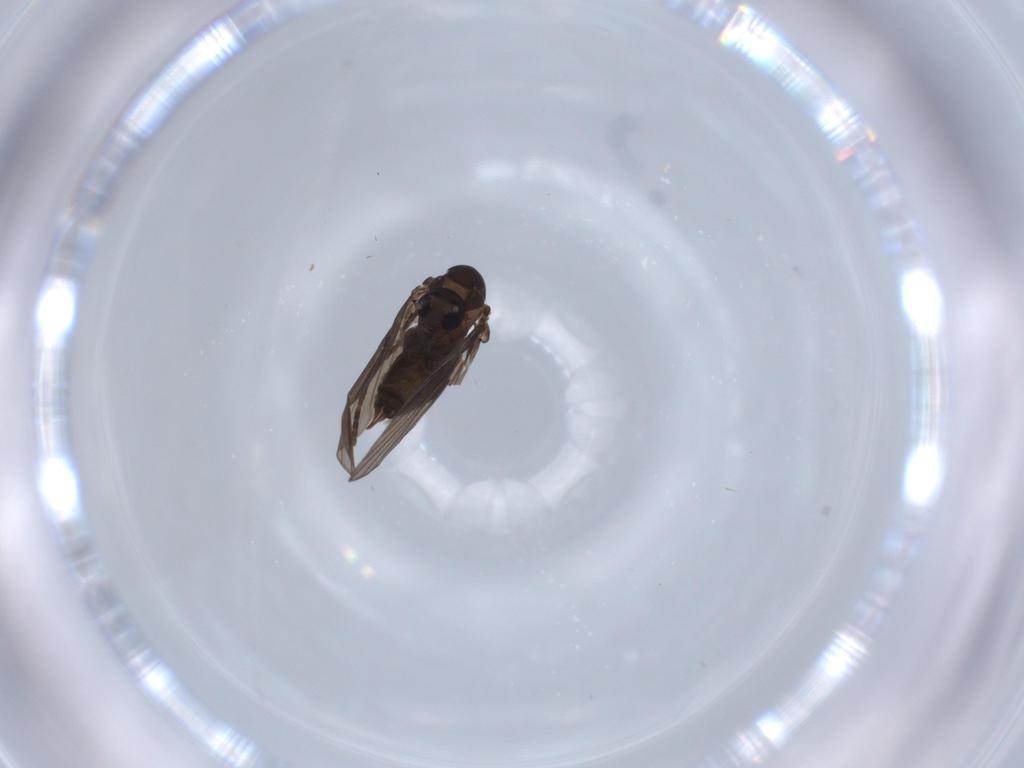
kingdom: Animalia
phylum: Arthropoda
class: Insecta
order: Diptera
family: Psychodidae
